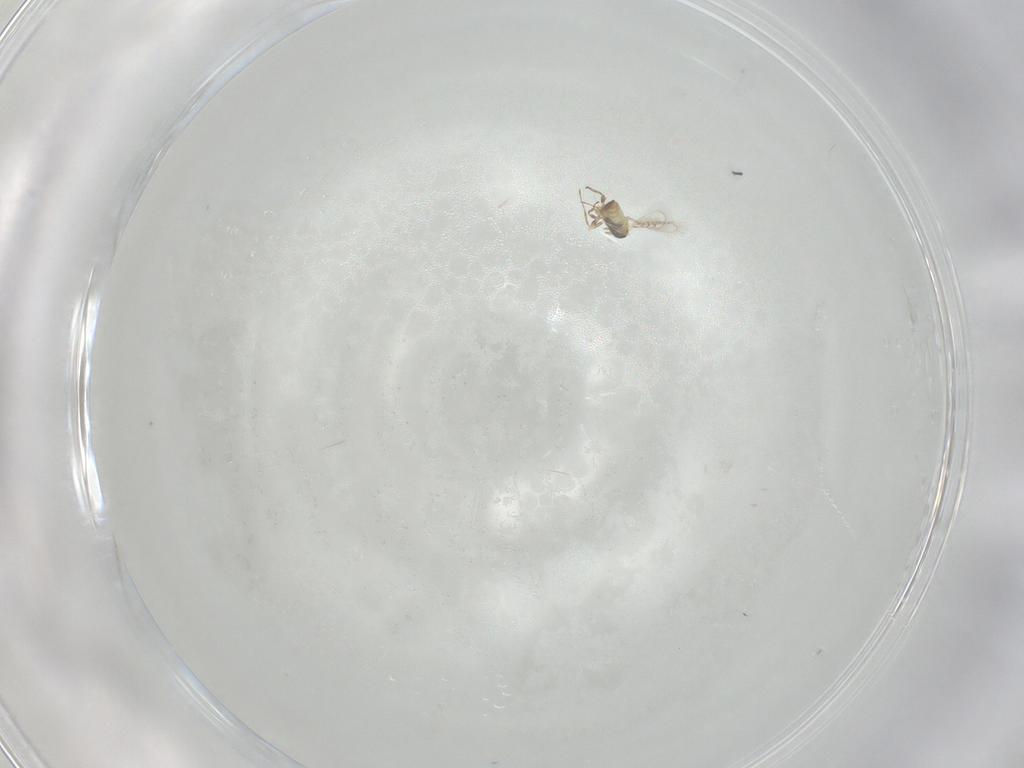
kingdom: Animalia
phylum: Arthropoda
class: Insecta
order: Hymenoptera
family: Trichogrammatidae
